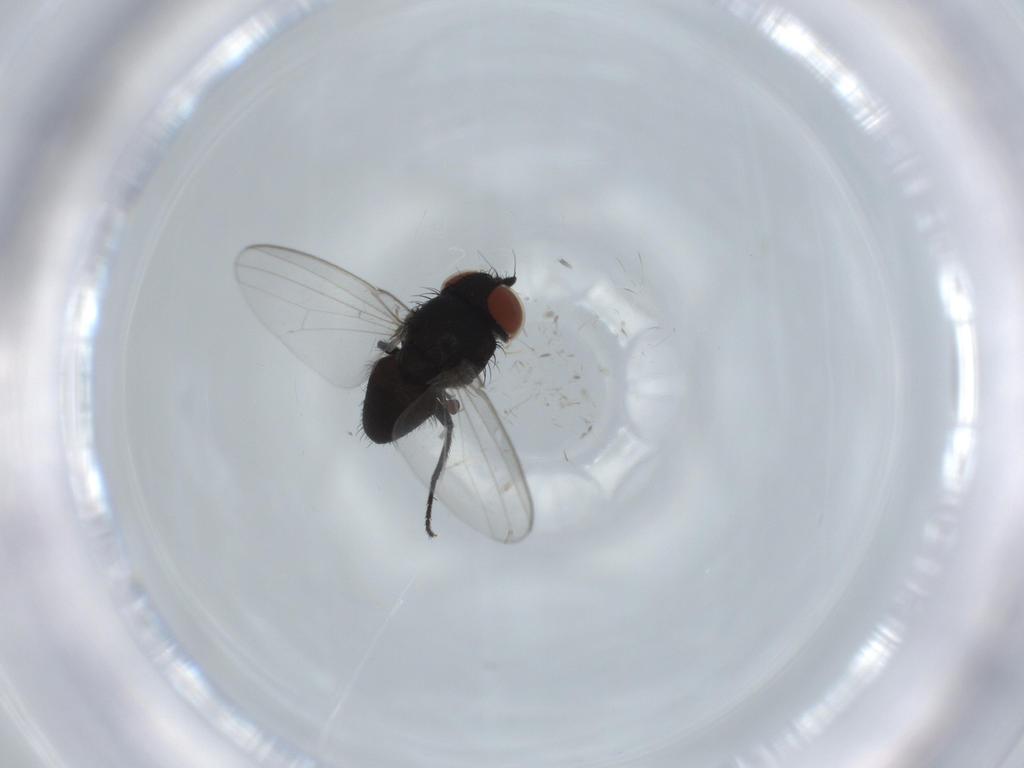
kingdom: Animalia
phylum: Arthropoda
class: Insecta
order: Diptera
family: Milichiidae
